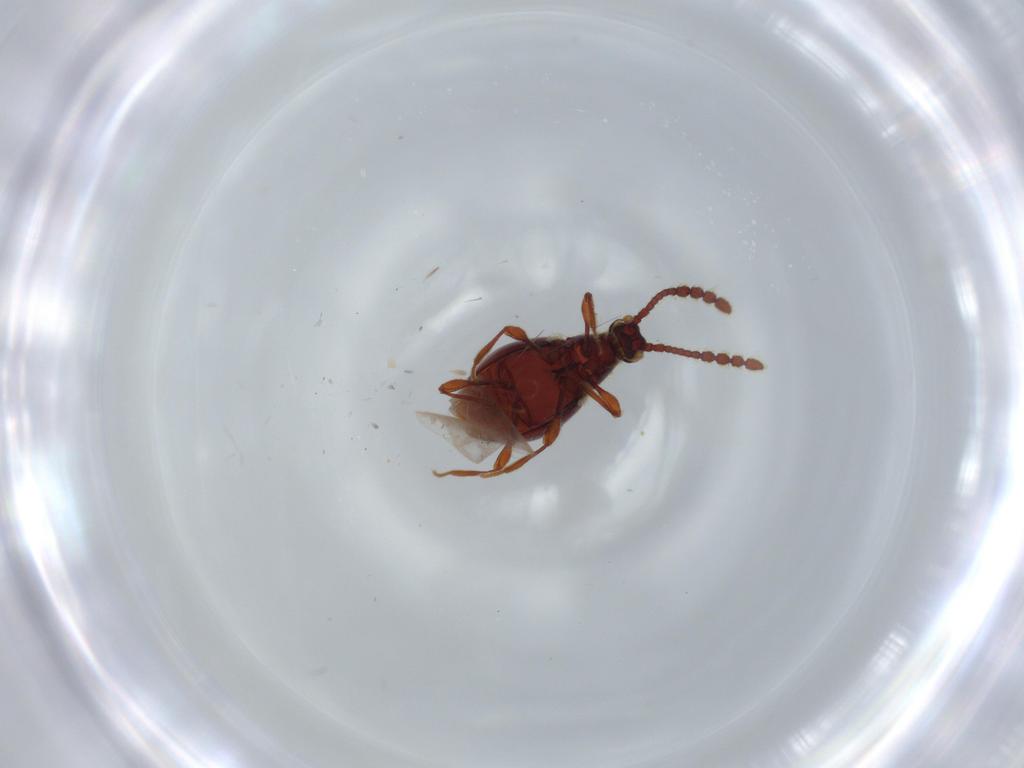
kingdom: Animalia
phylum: Arthropoda
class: Insecta
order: Coleoptera
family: Staphylinidae
